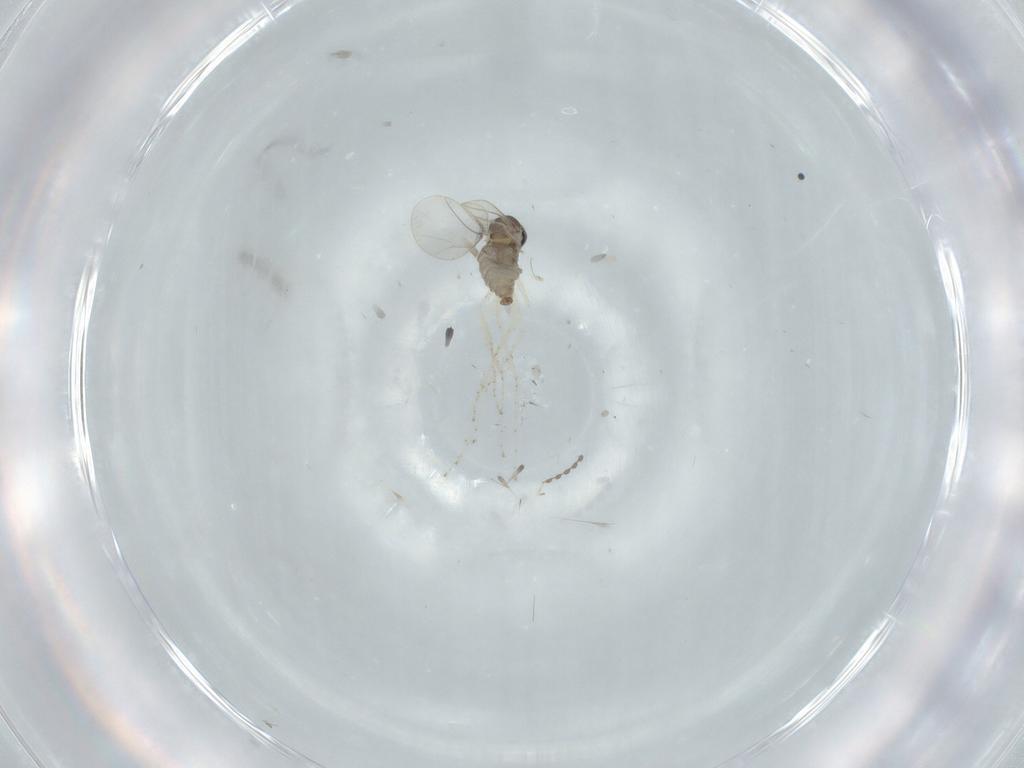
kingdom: Animalia
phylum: Arthropoda
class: Insecta
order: Diptera
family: Cecidomyiidae
